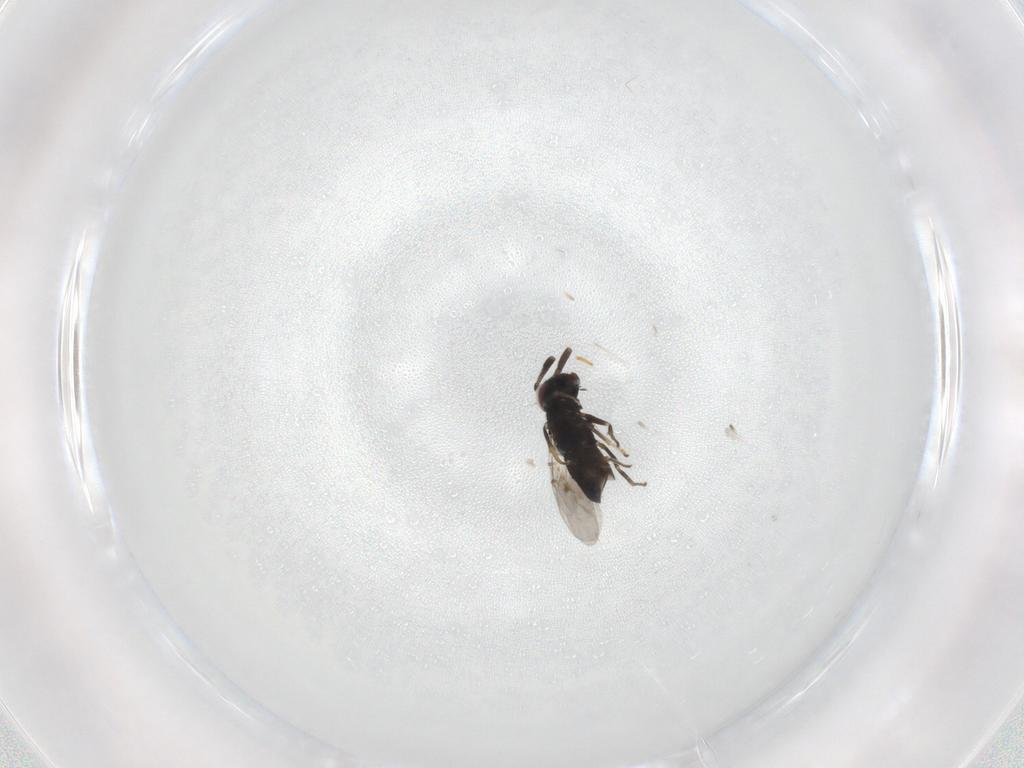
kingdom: Animalia
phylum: Arthropoda
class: Insecta
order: Hymenoptera
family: Encyrtidae
